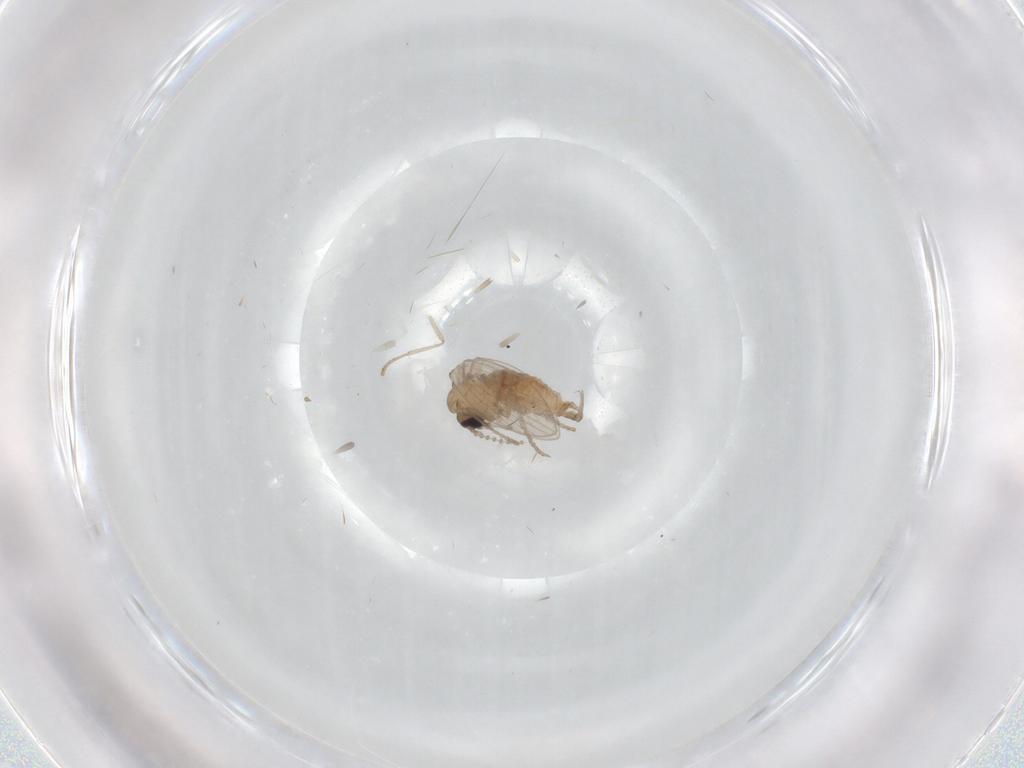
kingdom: Animalia
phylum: Arthropoda
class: Insecta
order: Diptera
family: Psychodidae
